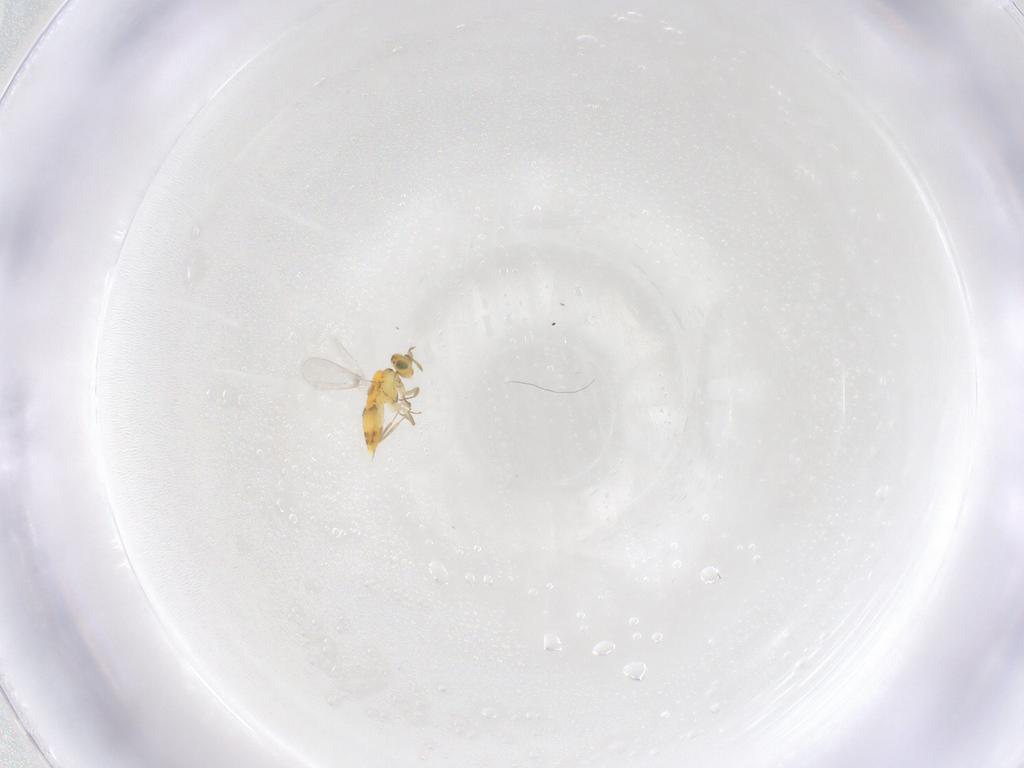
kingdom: Animalia
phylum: Arthropoda
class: Insecta
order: Hymenoptera
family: Aphelinidae
